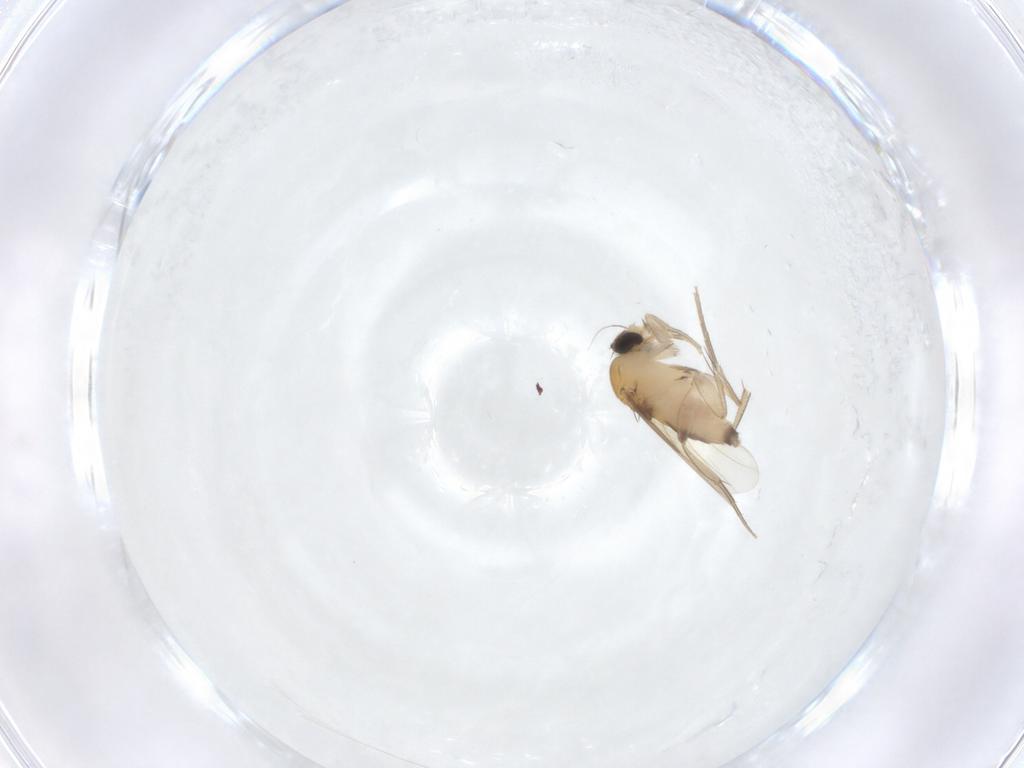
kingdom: Animalia
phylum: Arthropoda
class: Insecta
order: Diptera
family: Phoridae
